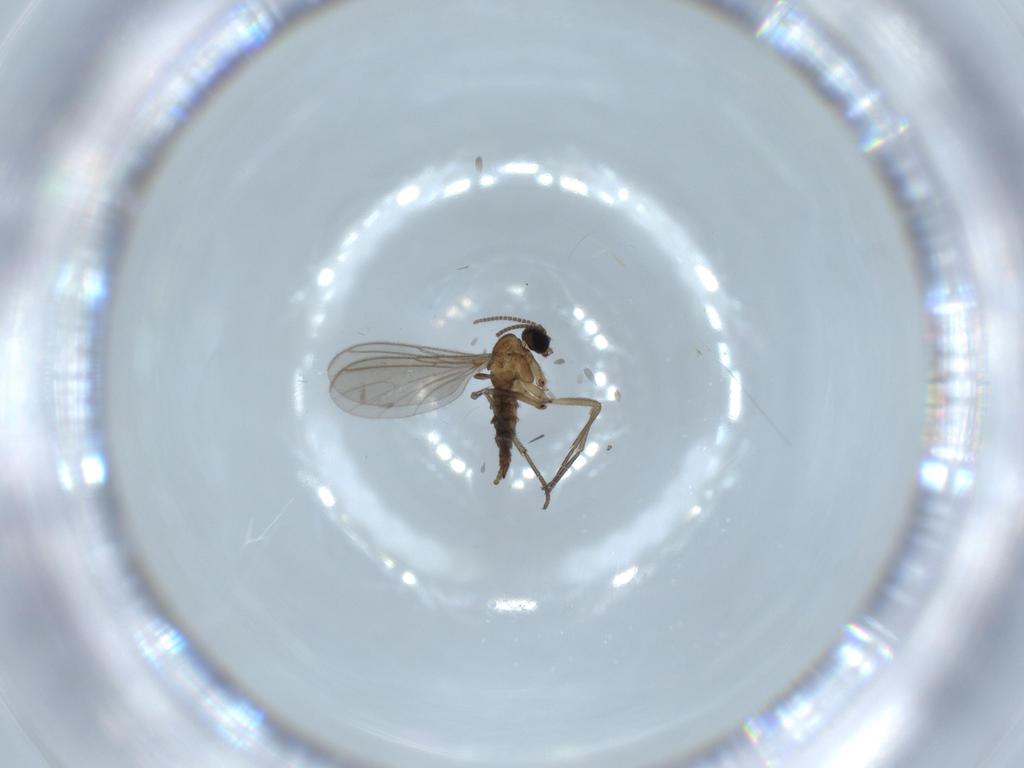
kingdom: Animalia
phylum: Arthropoda
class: Insecta
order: Diptera
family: Sciaridae
